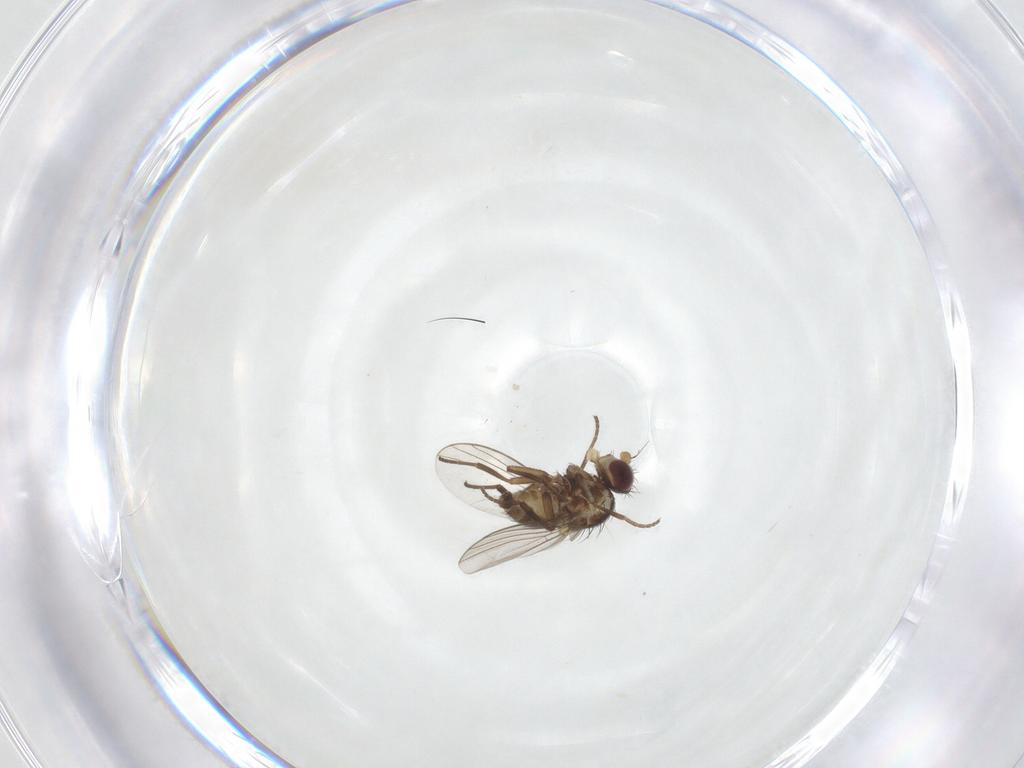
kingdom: Animalia
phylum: Arthropoda
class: Insecta
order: Diptera
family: Agromyzidae
